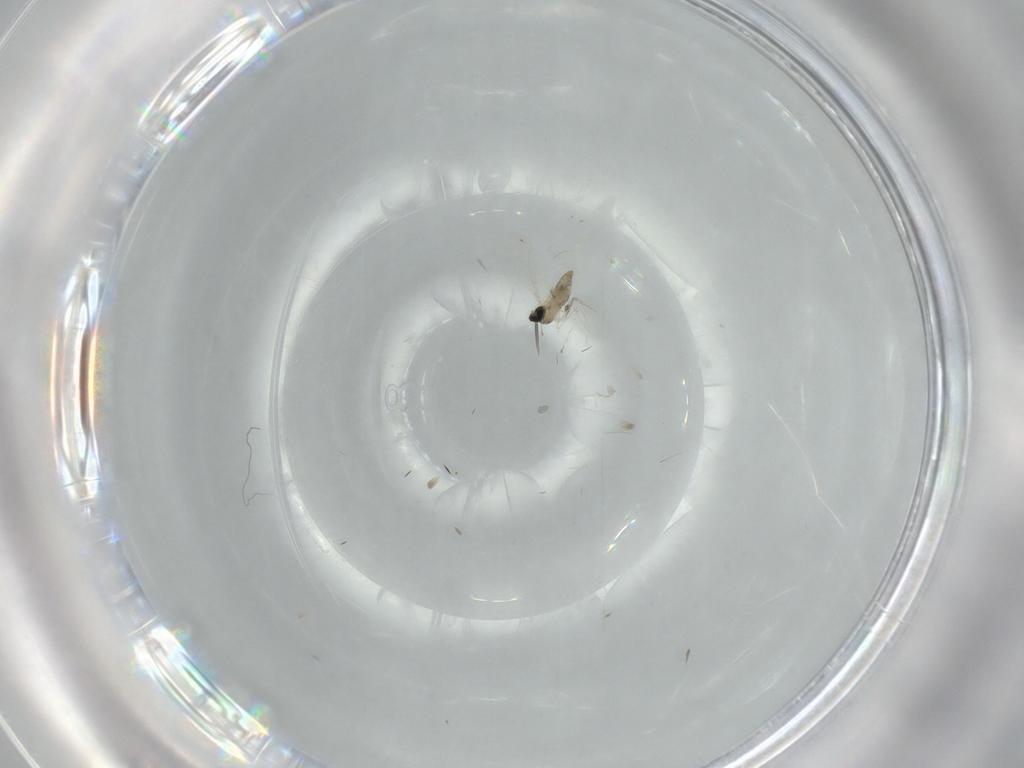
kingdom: Animalia
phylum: Arthropoda
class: Insecta
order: Diptera
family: Cecidomyiidae
